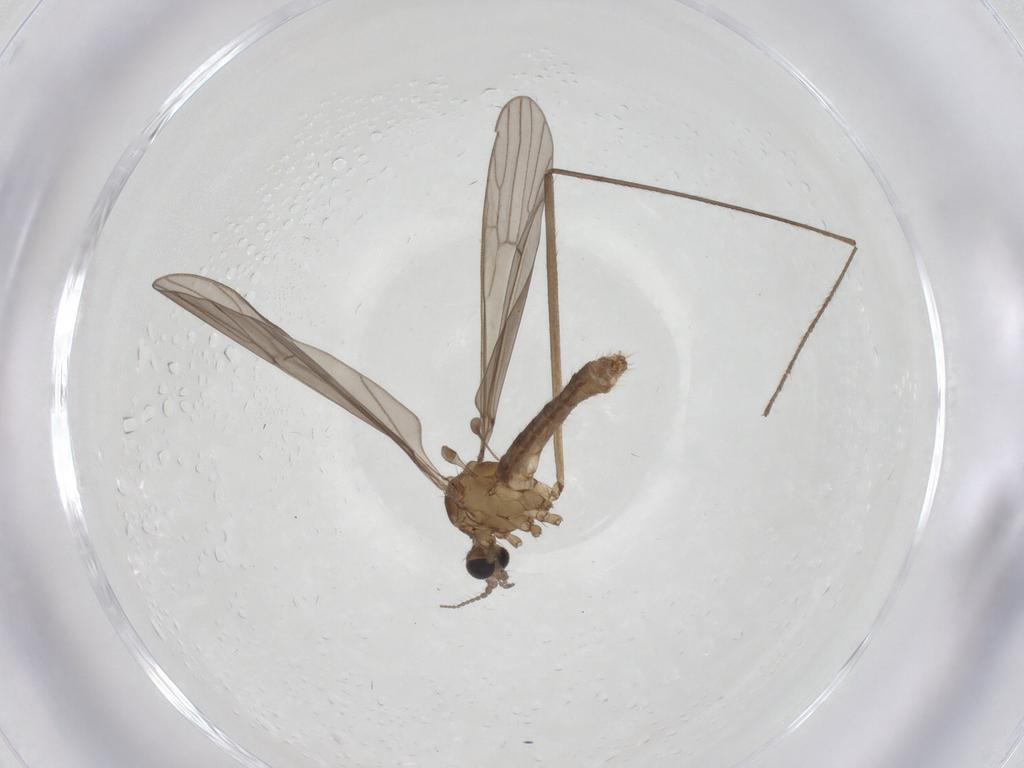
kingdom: Animalia
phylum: Arthropoda
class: Insecta
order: Diptera
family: Limoniidae
